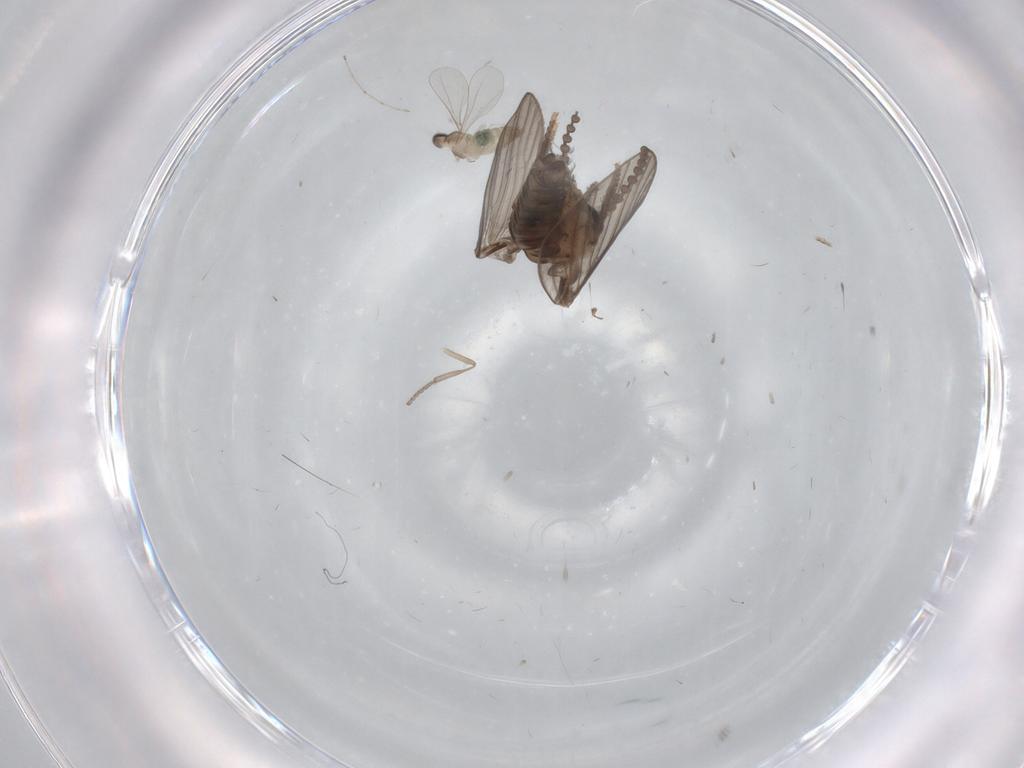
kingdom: Animalia
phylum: Arthropoda
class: Insecta
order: Diptera
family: Psychodidae
